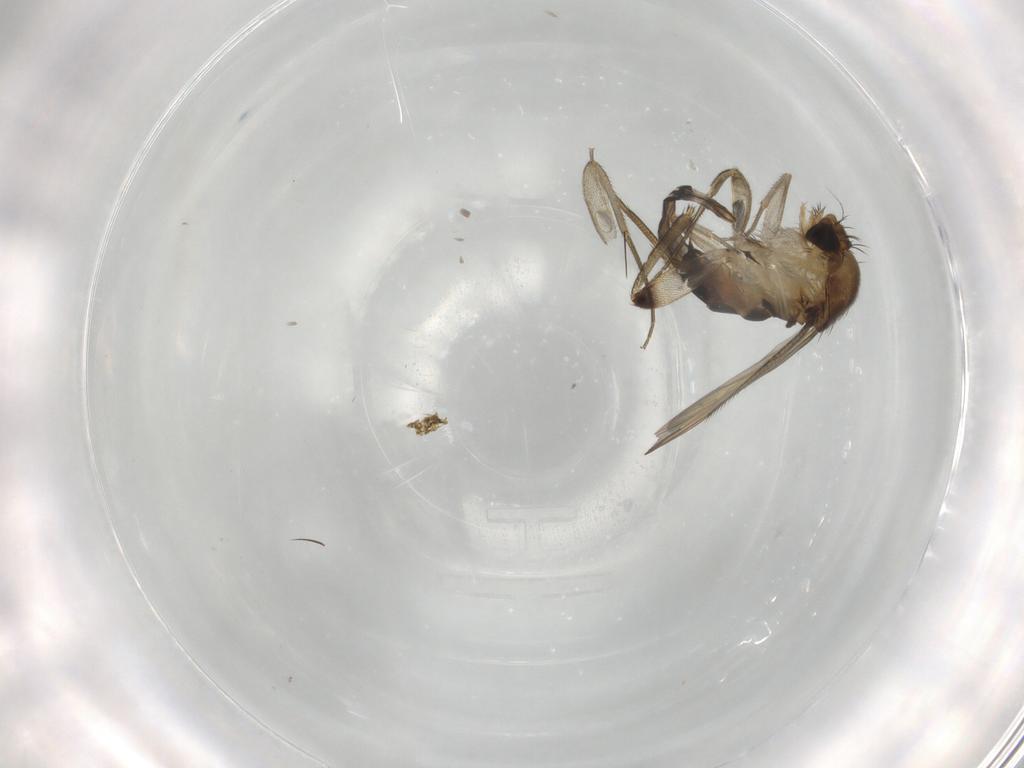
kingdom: Animalia
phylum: Arthropoda
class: Insecta
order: Diptera
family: Phoridae
